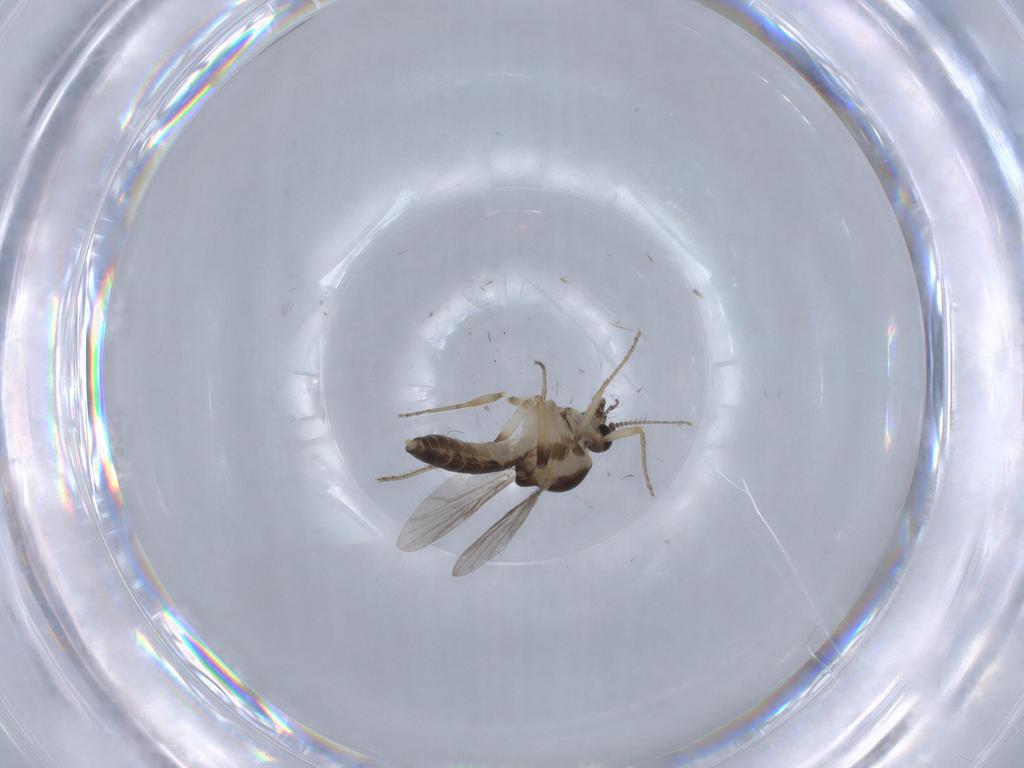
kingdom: Animalia
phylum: Arthropoda
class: Insecta
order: Diptera
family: Ceratopogonidae
